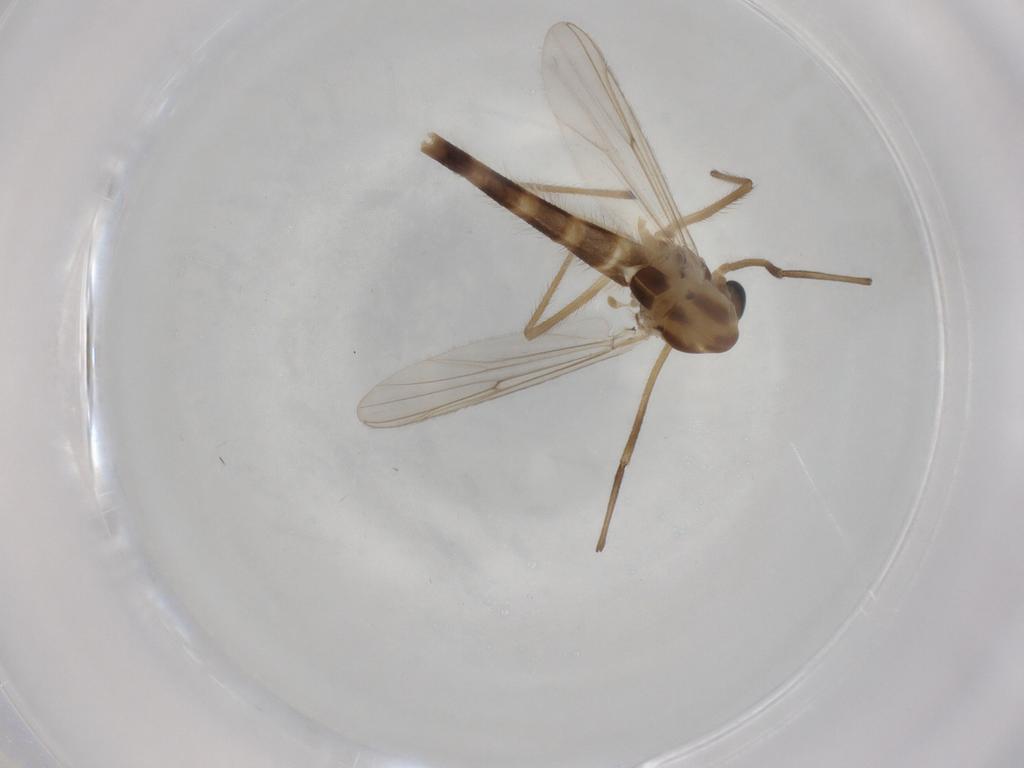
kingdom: Animalia
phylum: Arthropoda
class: Insecta
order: Diptera
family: Chironomidae
